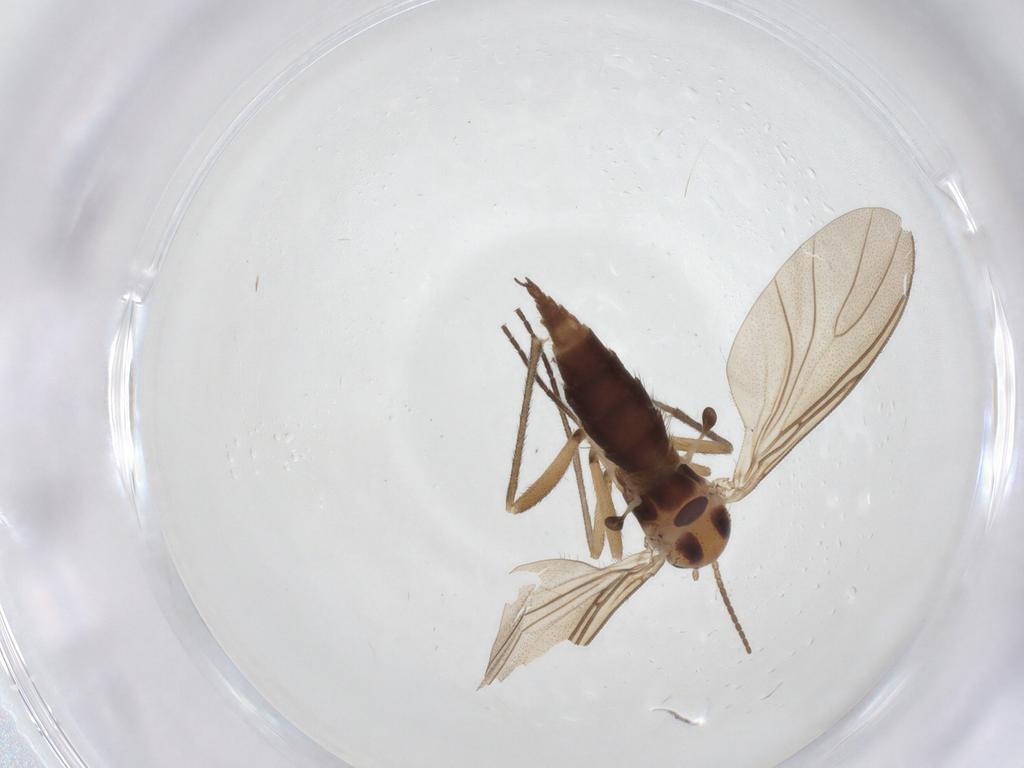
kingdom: Animalia
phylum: Arthropoda
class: Insecta
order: Diptera
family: Sciaridae
